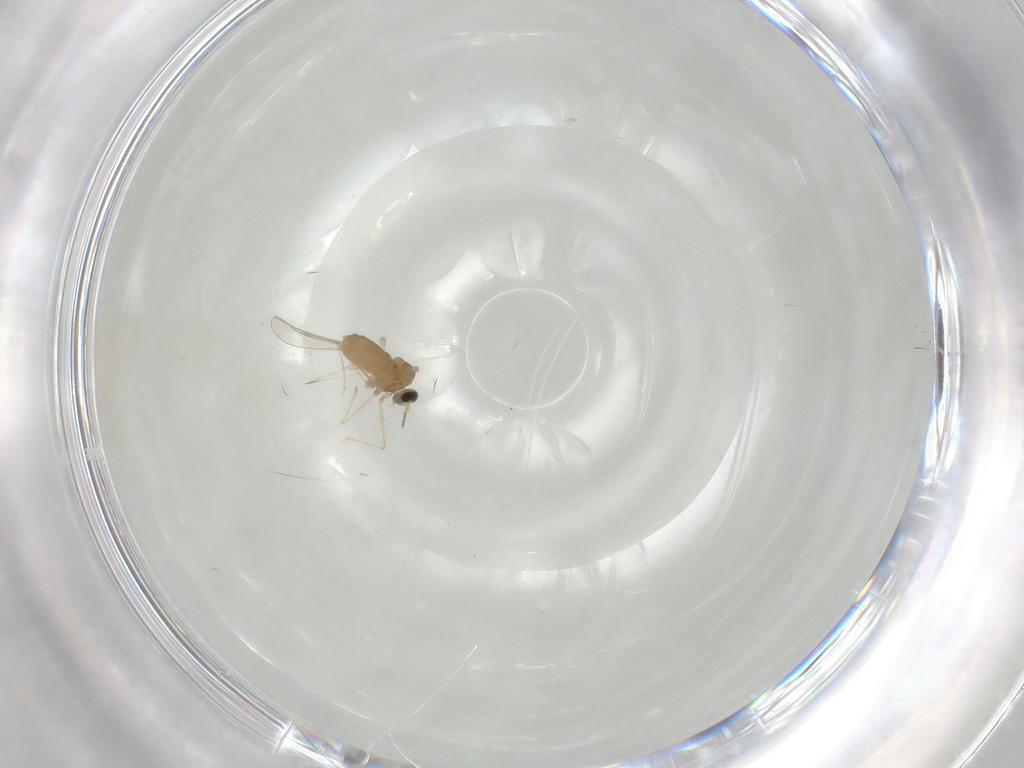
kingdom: Animalia
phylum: Arthropoda
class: Insecta
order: Diptera
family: Cecidomyiidae
